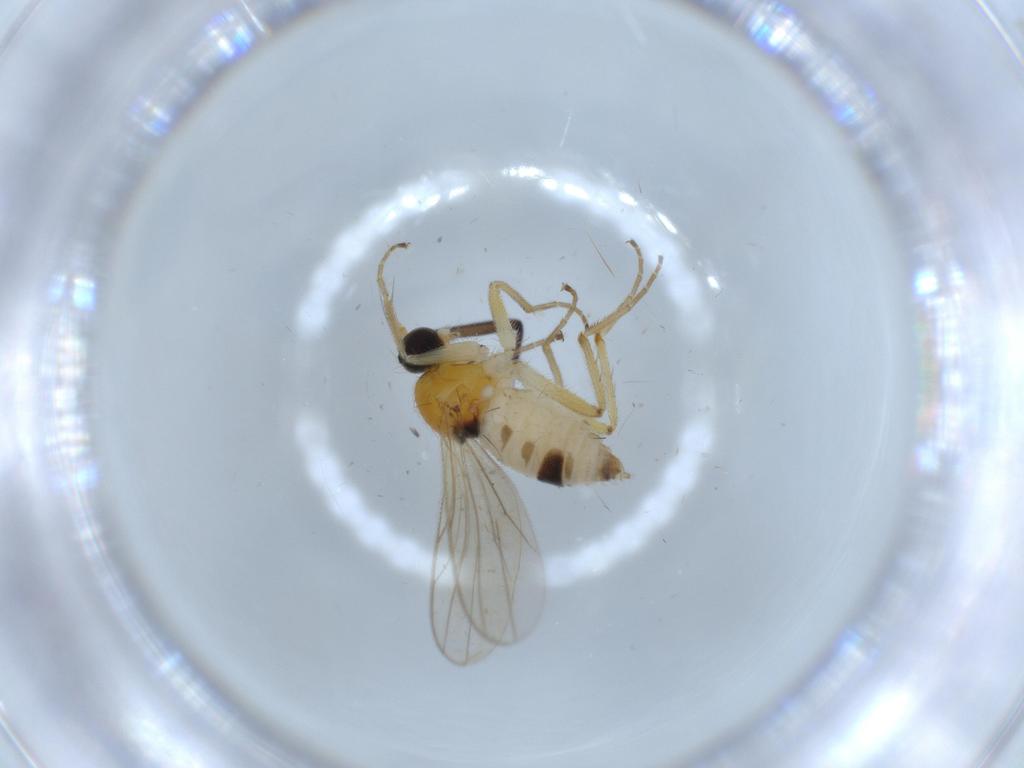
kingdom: Animalia
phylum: Arthropoda
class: Insecta
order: Diptera
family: Hybotidae
